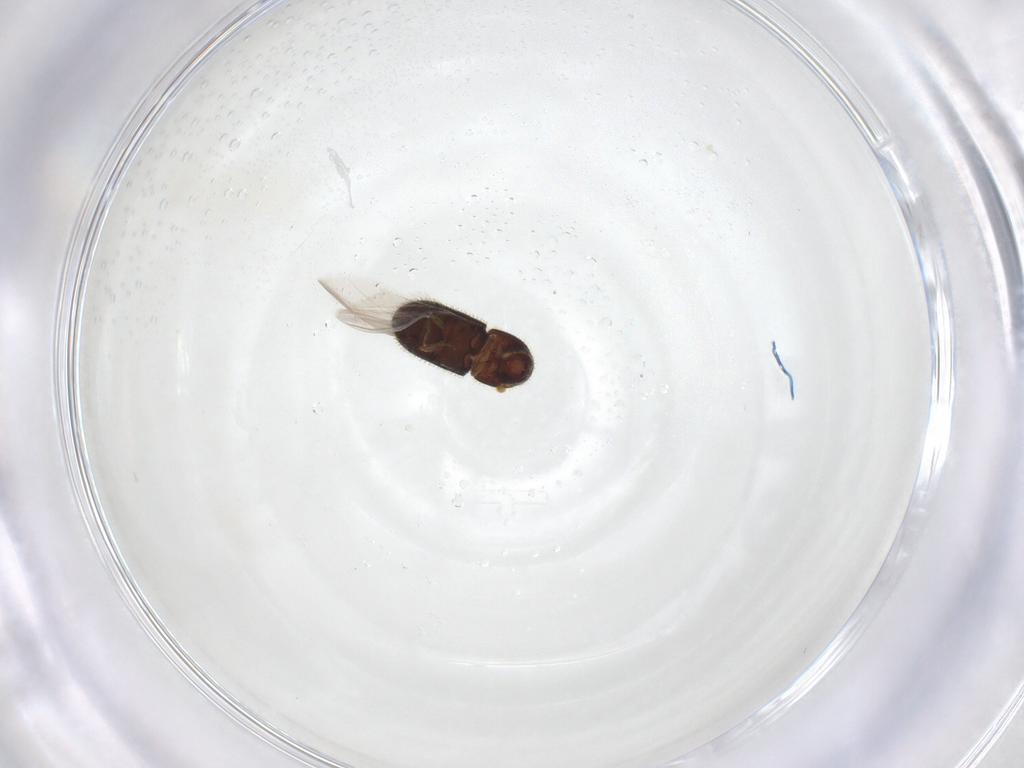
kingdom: Animalia
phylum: Arthropoda
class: Insecta
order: Coleoptera
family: Curculionidae
